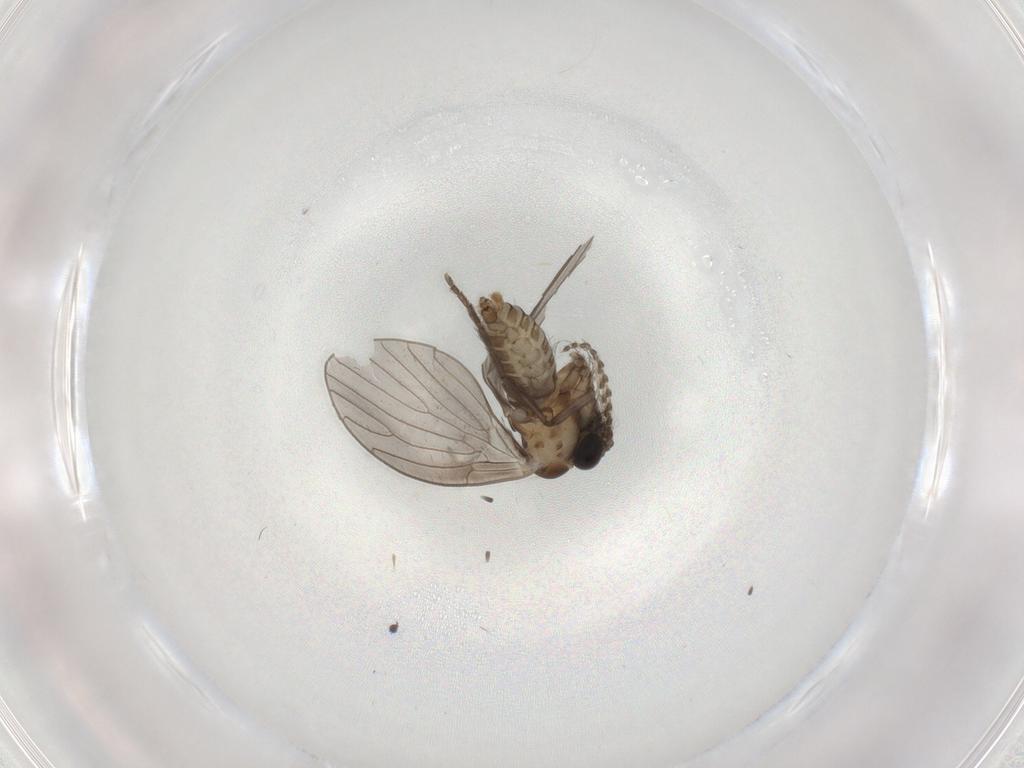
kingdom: Animalia
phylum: Arthropoda
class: Insecta
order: Diptera
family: Psychodidae
